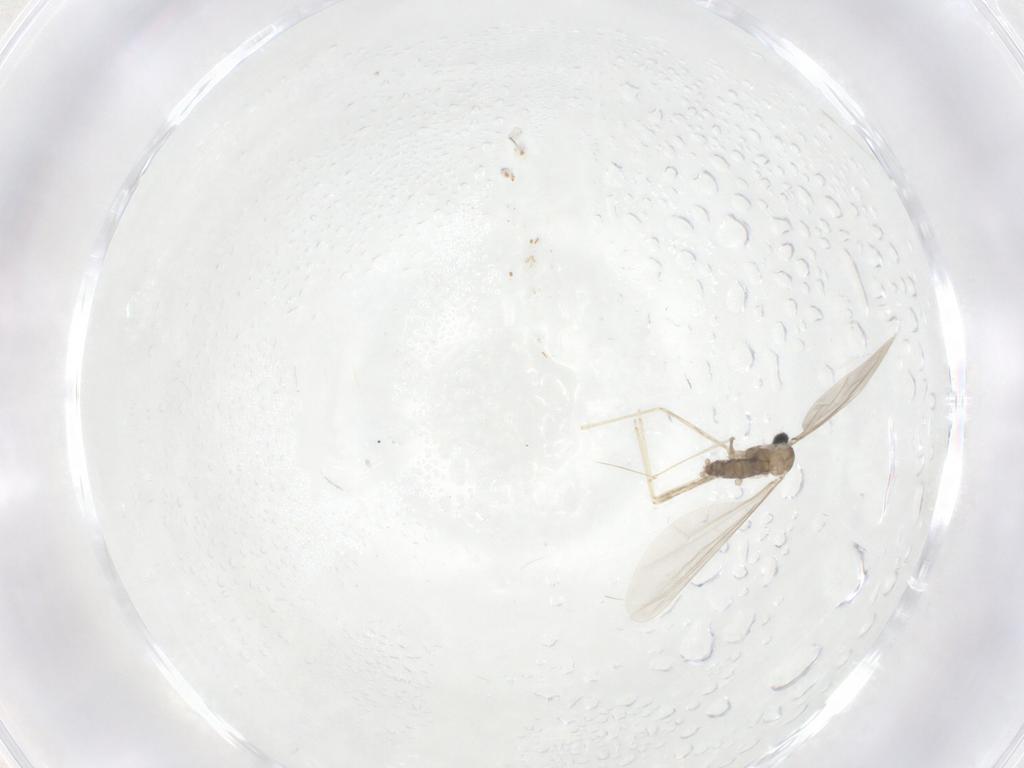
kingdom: Animalia
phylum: Arthropoda
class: Insecta
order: Diptera
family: Cecidomyiidae
